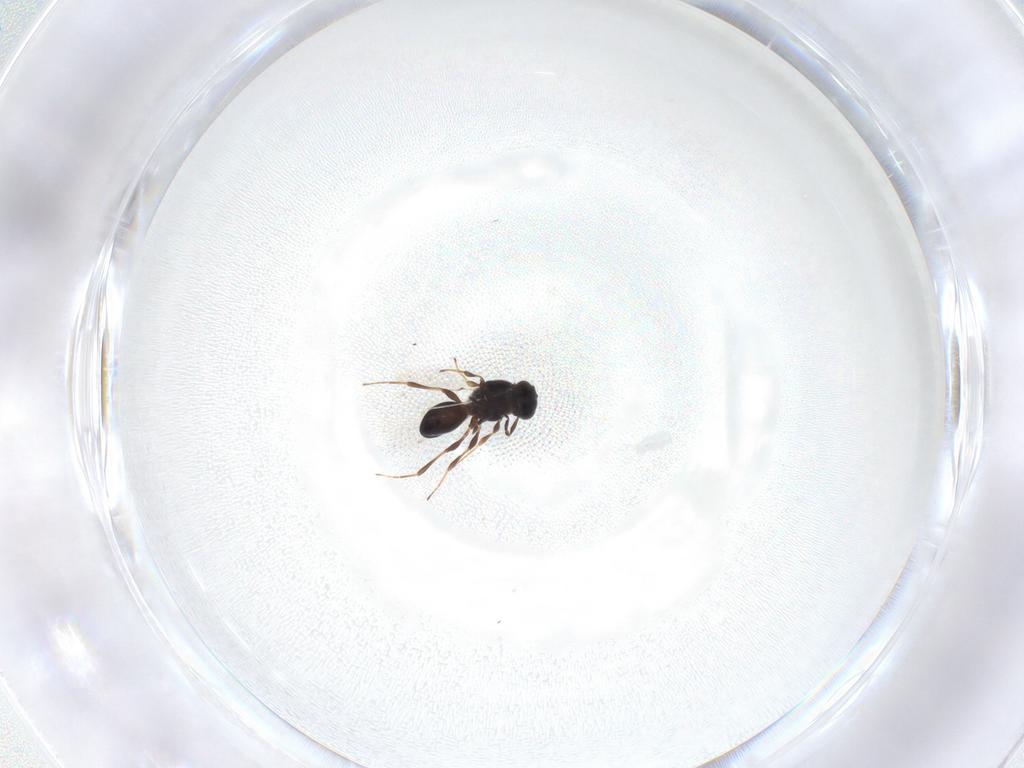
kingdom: Animalia
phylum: Arthropoda
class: Insecta
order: Hymenoptera
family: Platygastridae
